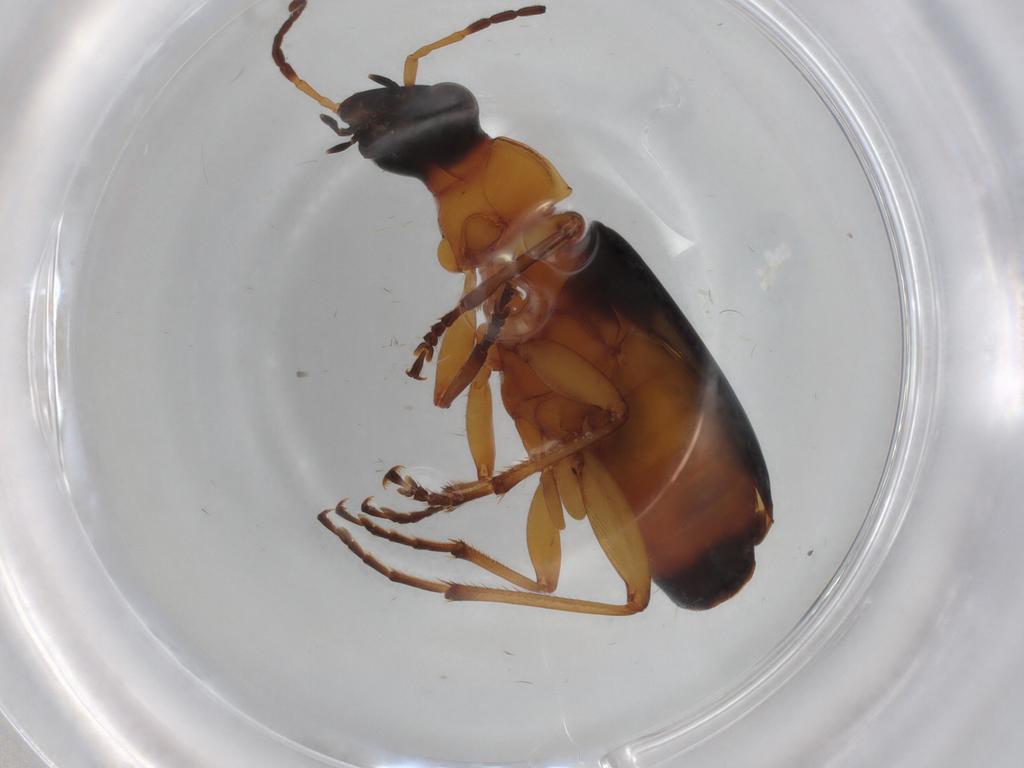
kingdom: Animalia
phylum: Arthropoda
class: Insecta
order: Coleoptera
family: Carabidae
